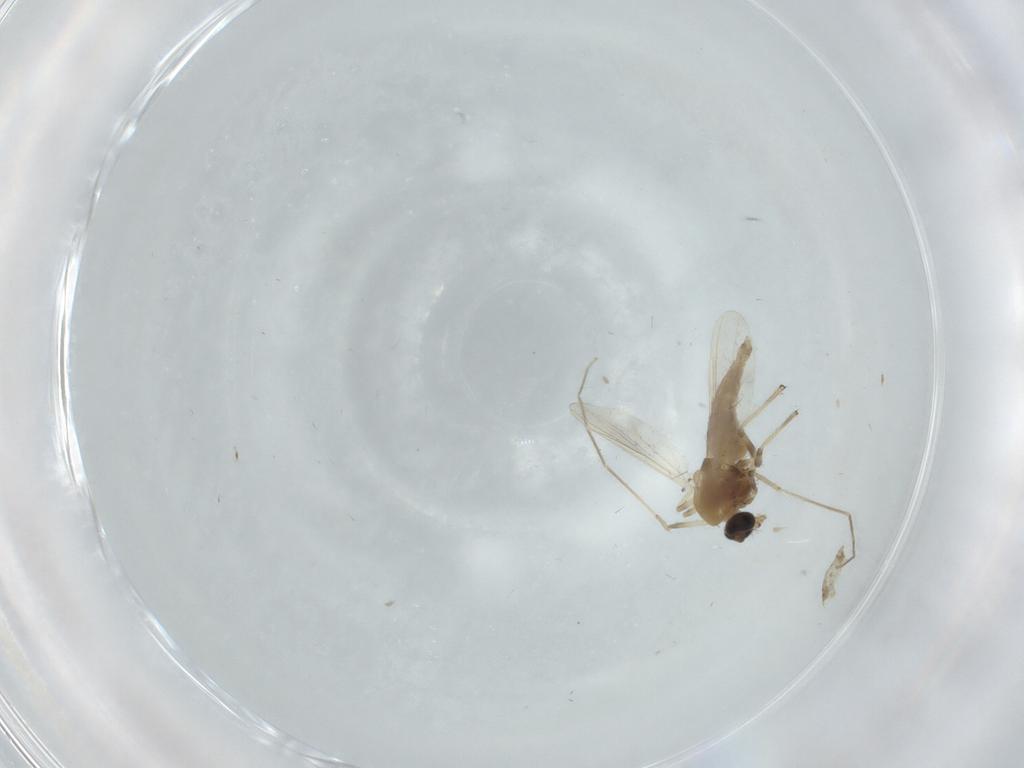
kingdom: Animalia
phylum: Arthropoda
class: Insecta
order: Diptera
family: Chironomidae
